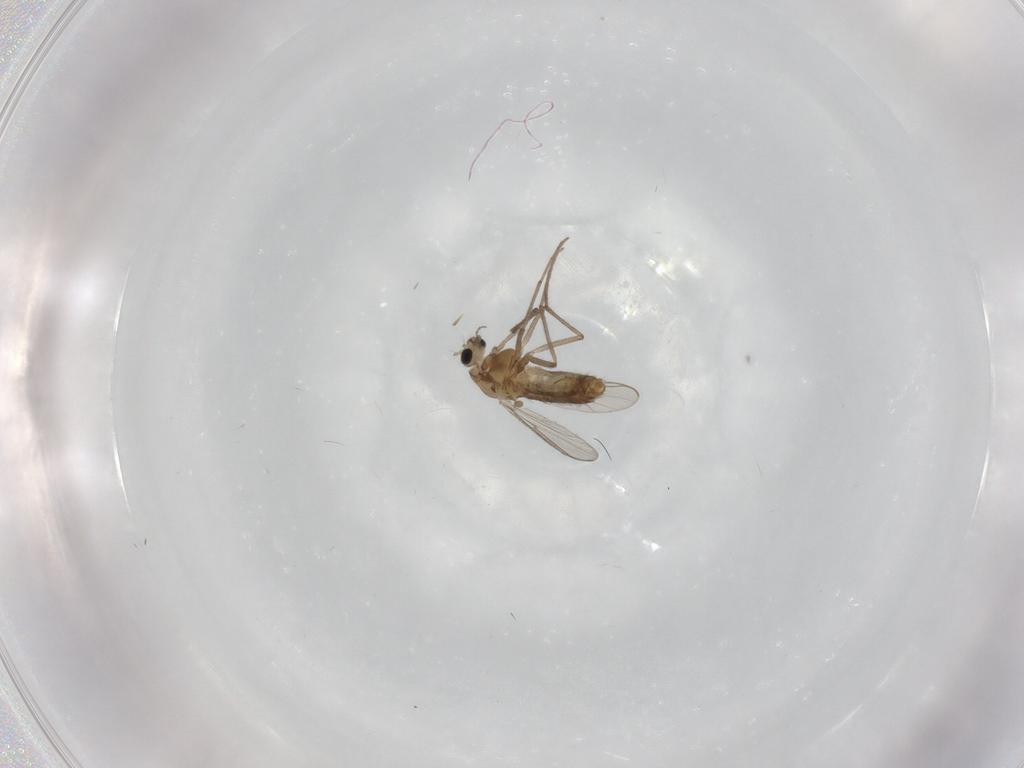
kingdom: Animalia
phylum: Arthropoda
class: Insecta
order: Diptera
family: Chironomidae
